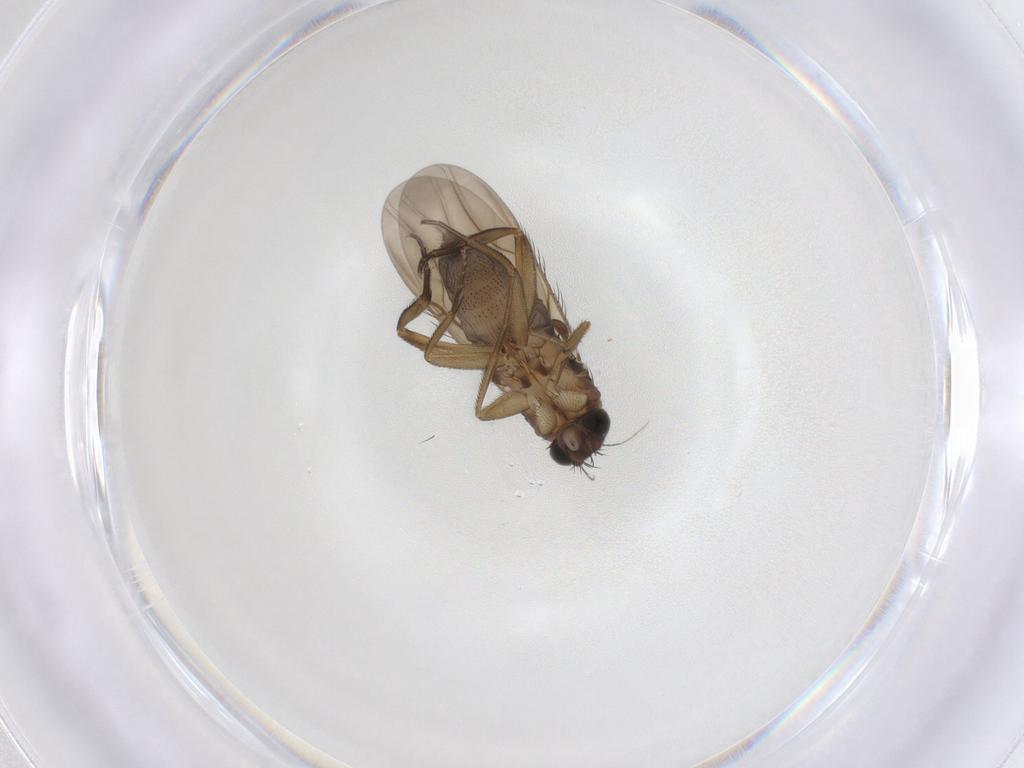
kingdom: Animalia
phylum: Arthropoda
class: Insecta
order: Diptera
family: Phoridae
